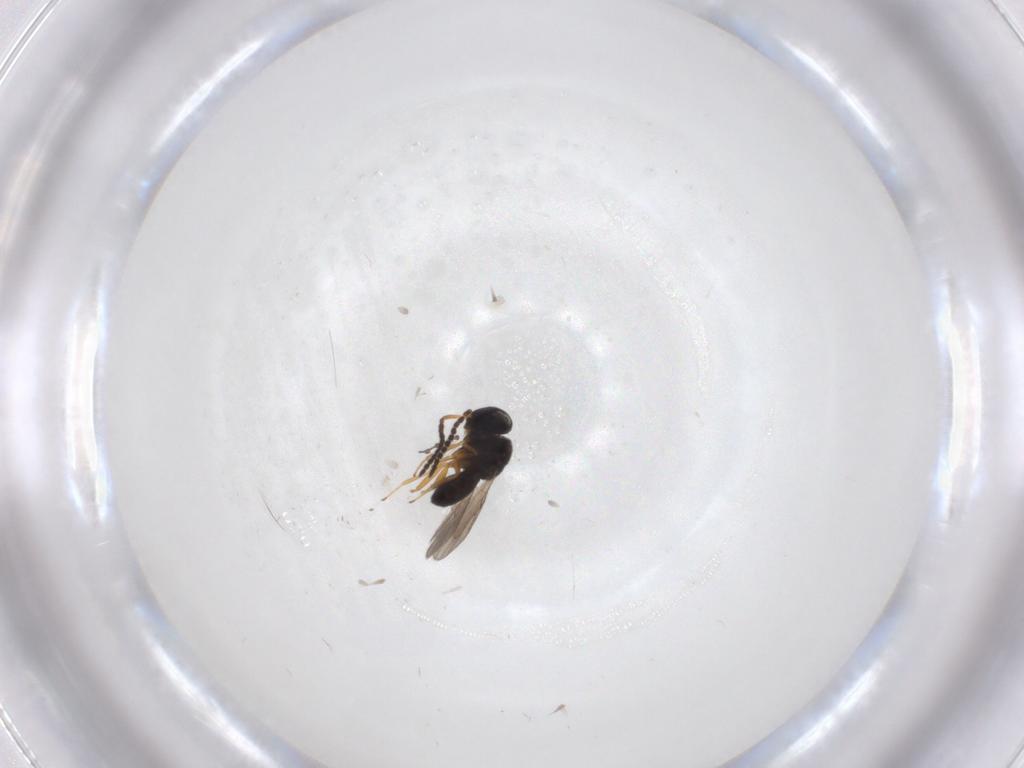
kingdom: Animalia
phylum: Arthropoda
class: Insecta
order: Hymenoptera
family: Scelionidae
